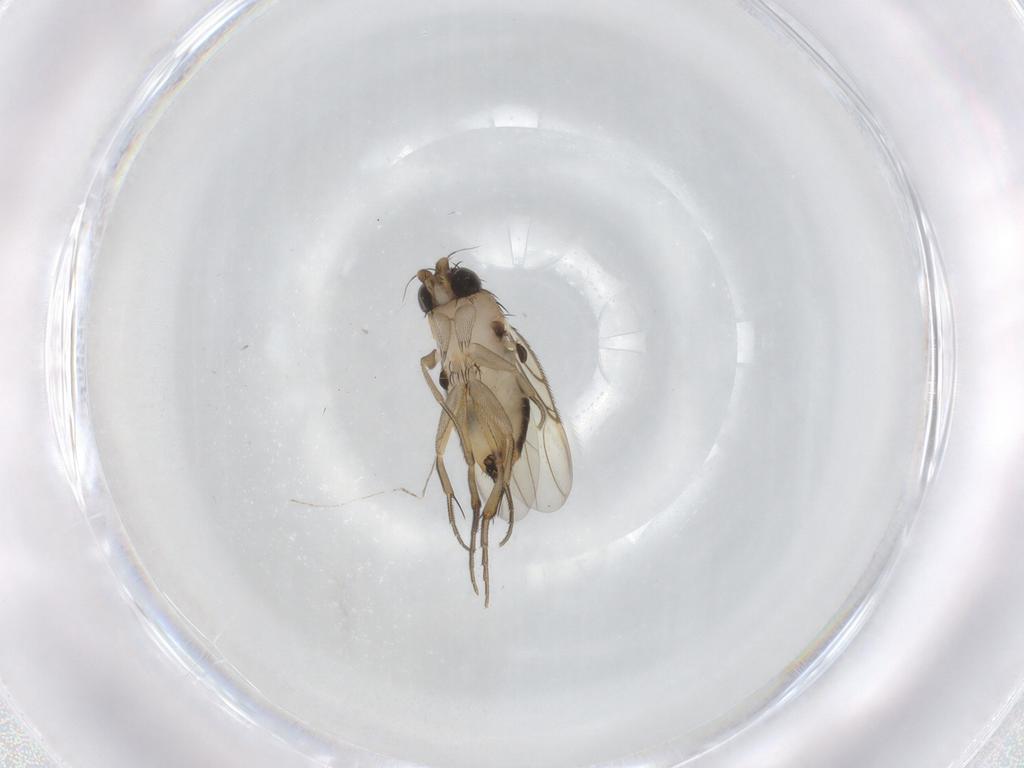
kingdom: Animalia
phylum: Arthropoda
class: Insecta
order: Diptera
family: Phoridae
